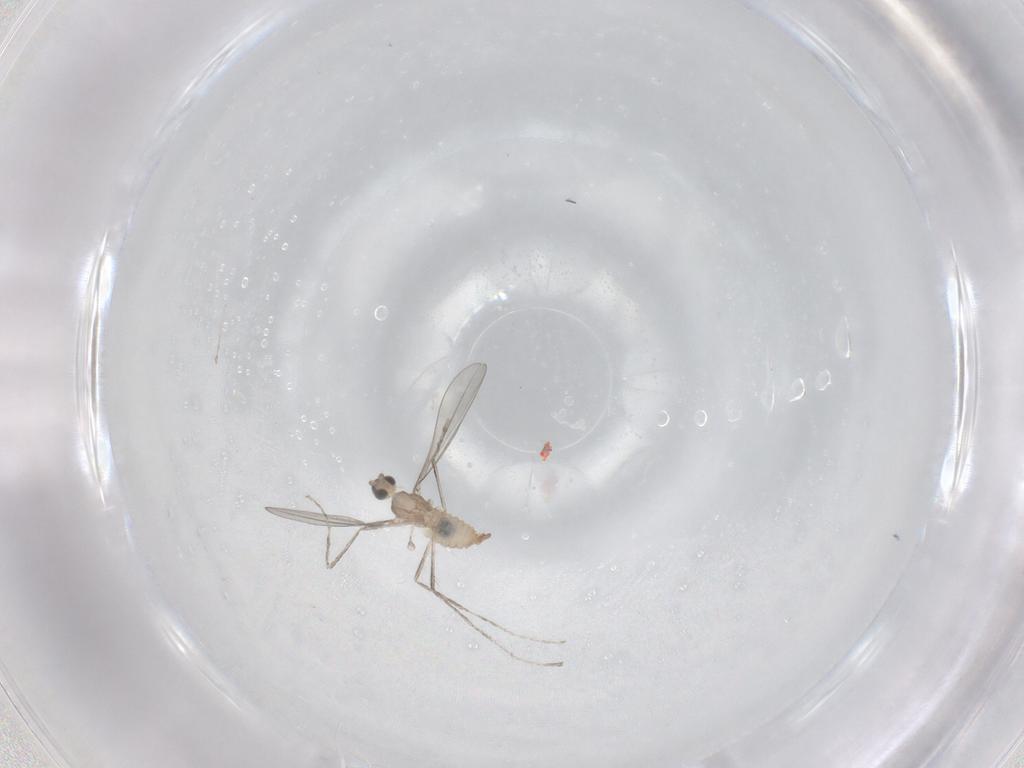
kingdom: Animalia
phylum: Arthropoda
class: Insecta
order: Diptera
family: Cecidomyiidae
